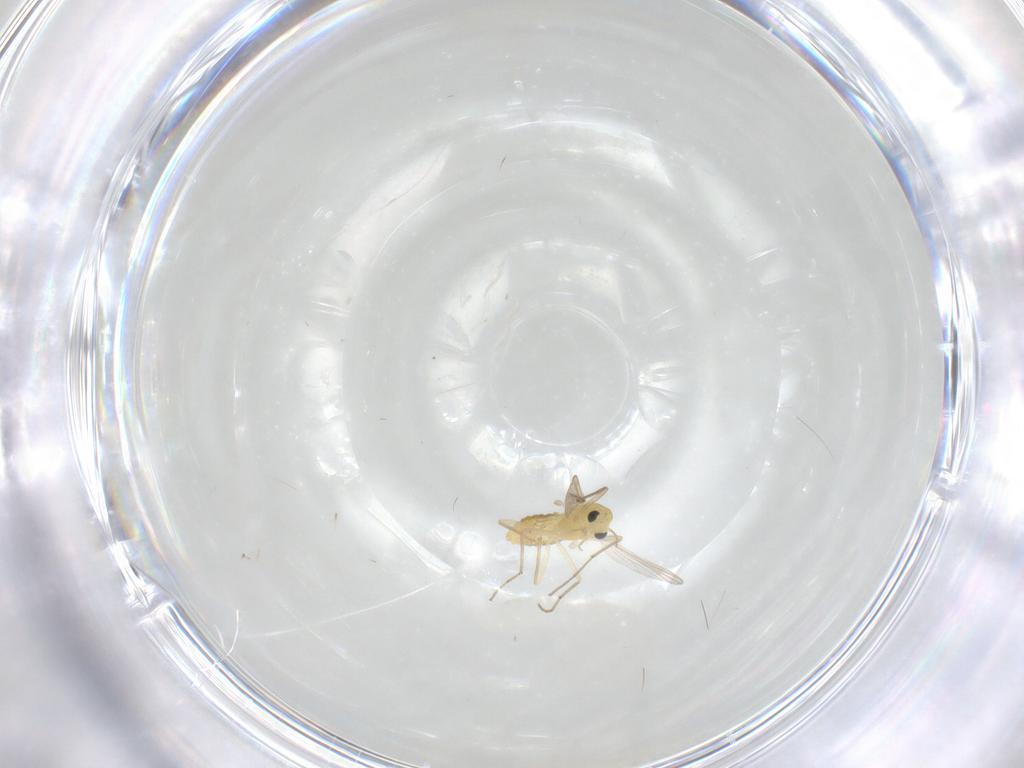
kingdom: Animalia
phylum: Arthropoda
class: Insecta
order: Diptera
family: Chironomidae
